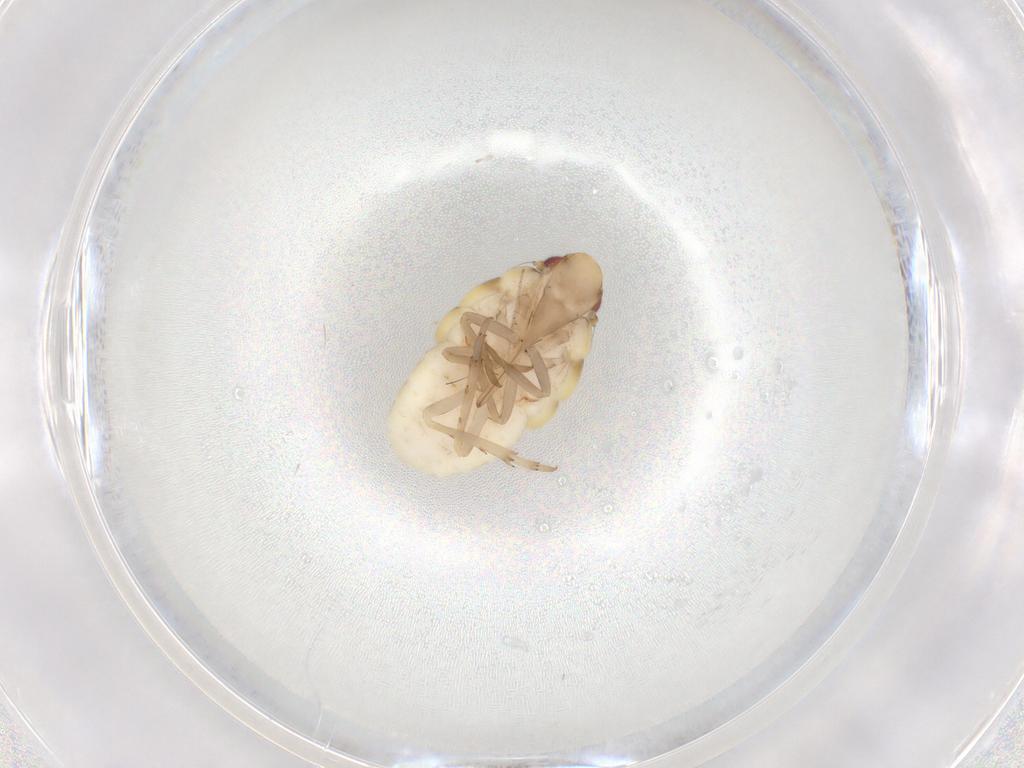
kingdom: Animalia
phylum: Arthropoda
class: Insecta
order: Hemiptera
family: Flatidae
